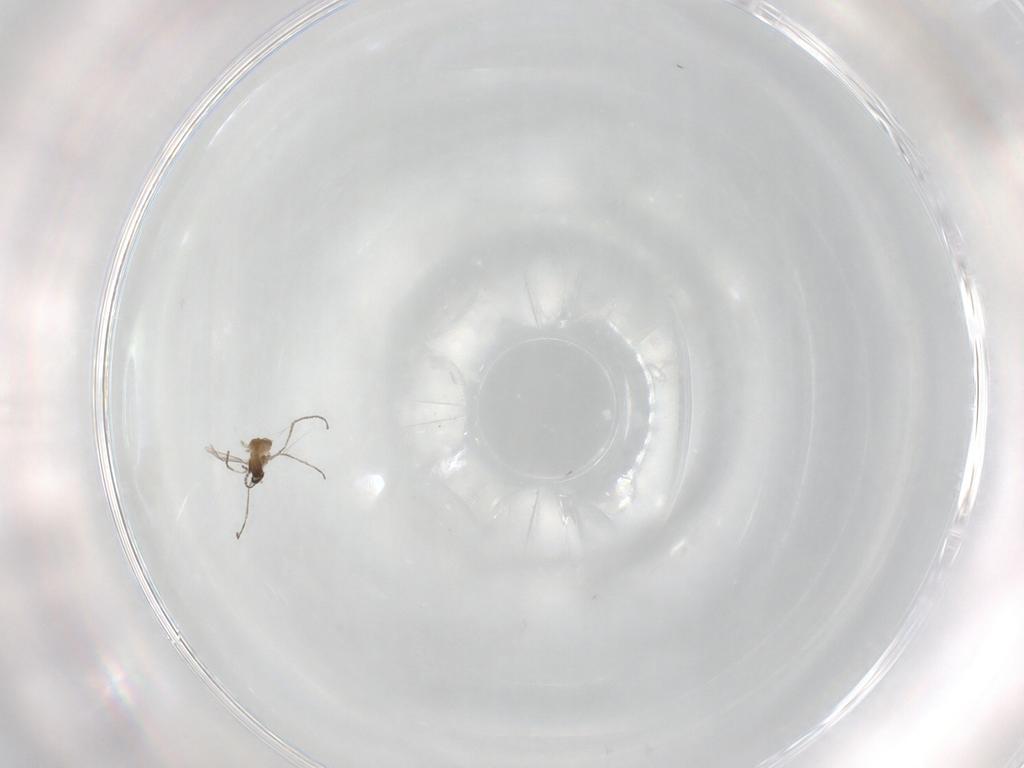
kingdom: Animalia
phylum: Arthropoda
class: Insecta
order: Diptera
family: Cecidomyiidae
